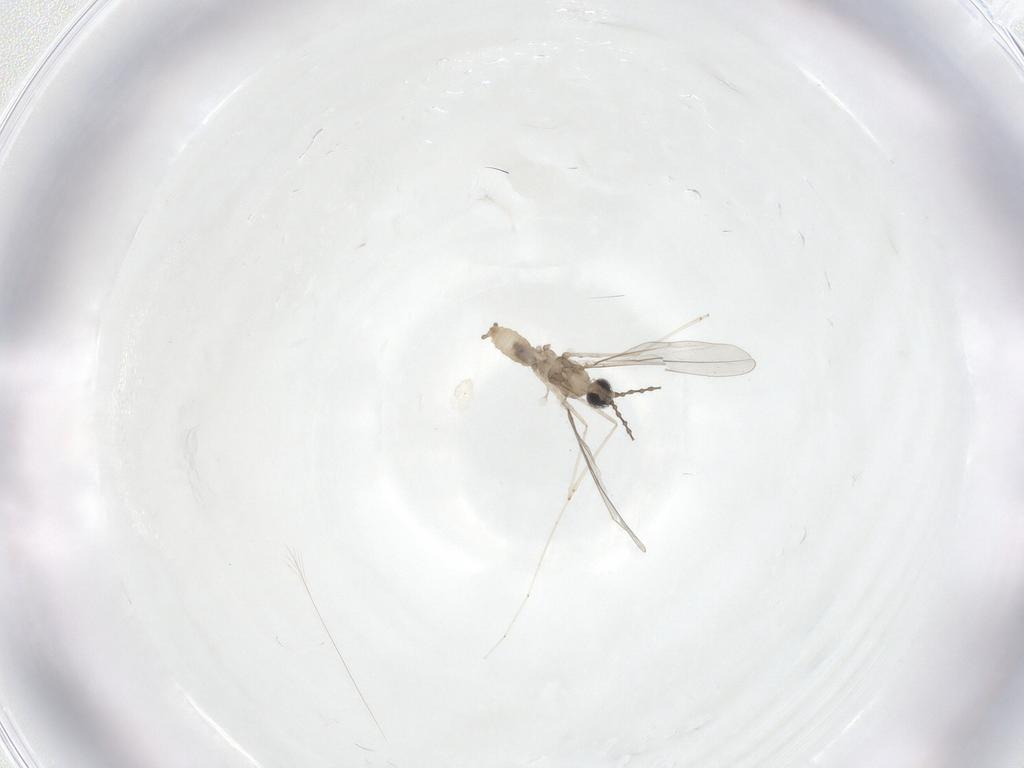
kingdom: Animalia
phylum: Arthropoda
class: Insecta
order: Diptera
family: Cecidomyiidae
